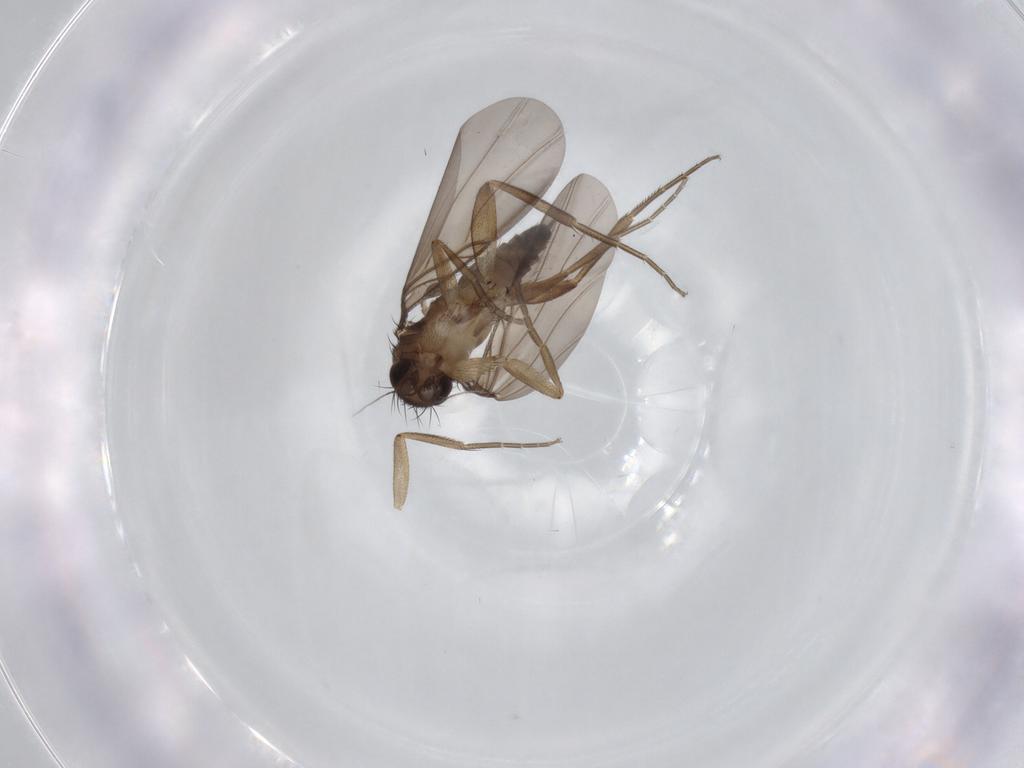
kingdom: Animalia
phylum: Arthropoda
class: Insecta
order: Diptera
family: Phoridae
